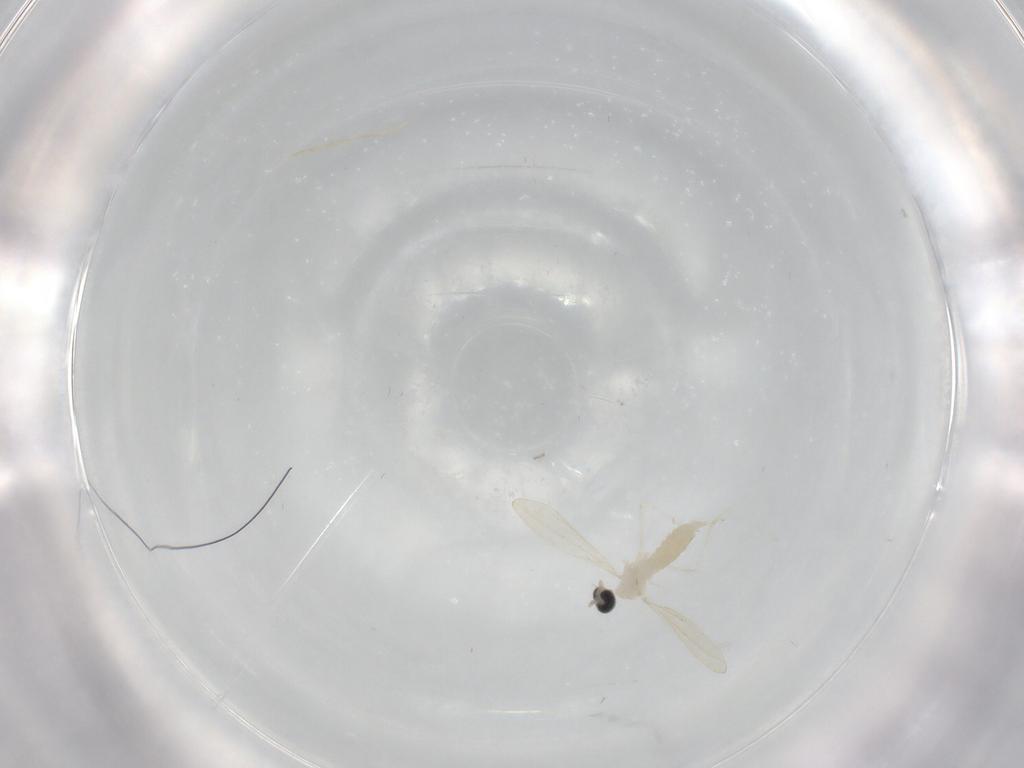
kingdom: Animalia
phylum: Arthropoda
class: Insecta
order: Diptera
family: Cecidomyiidae
